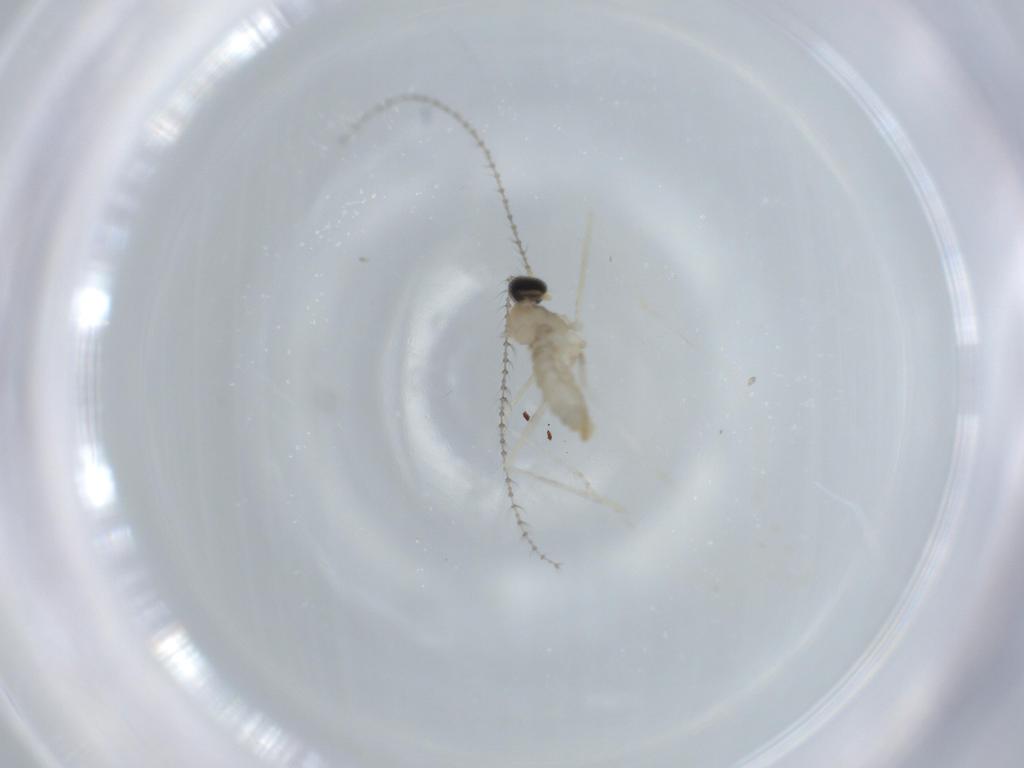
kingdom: Animalia
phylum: Arthropoda
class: Insecta
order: Diptera
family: Cecidomyiidae
